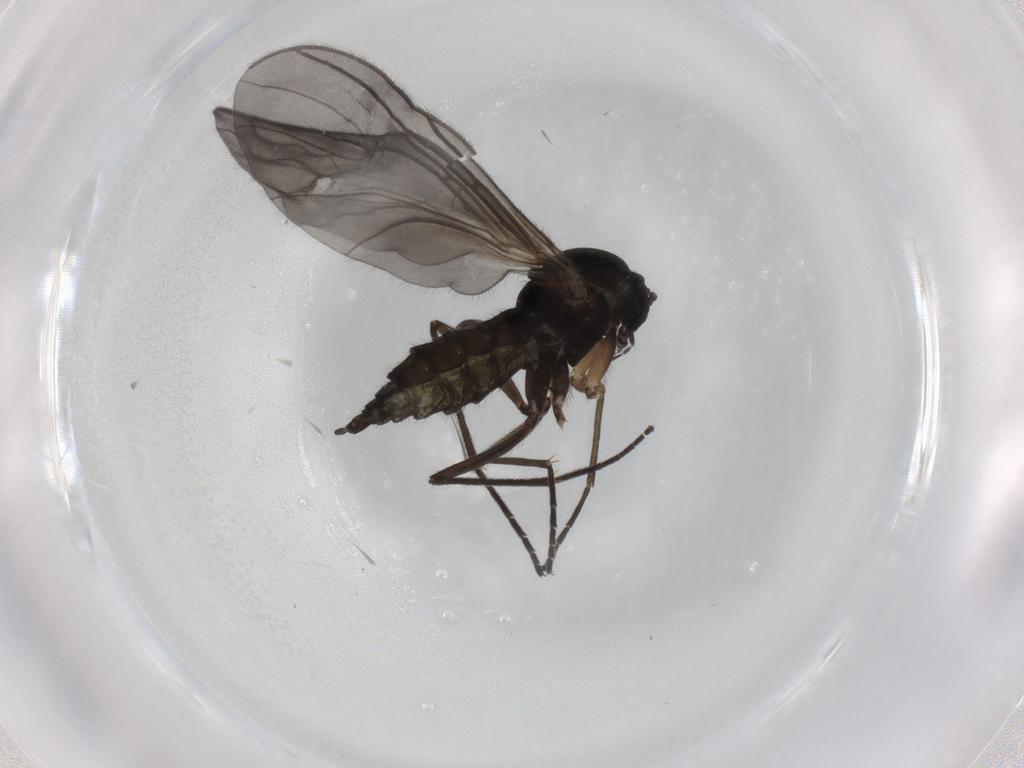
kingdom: Animalia
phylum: Arthropoda
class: Insecta
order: Diptera
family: Sciaridae
